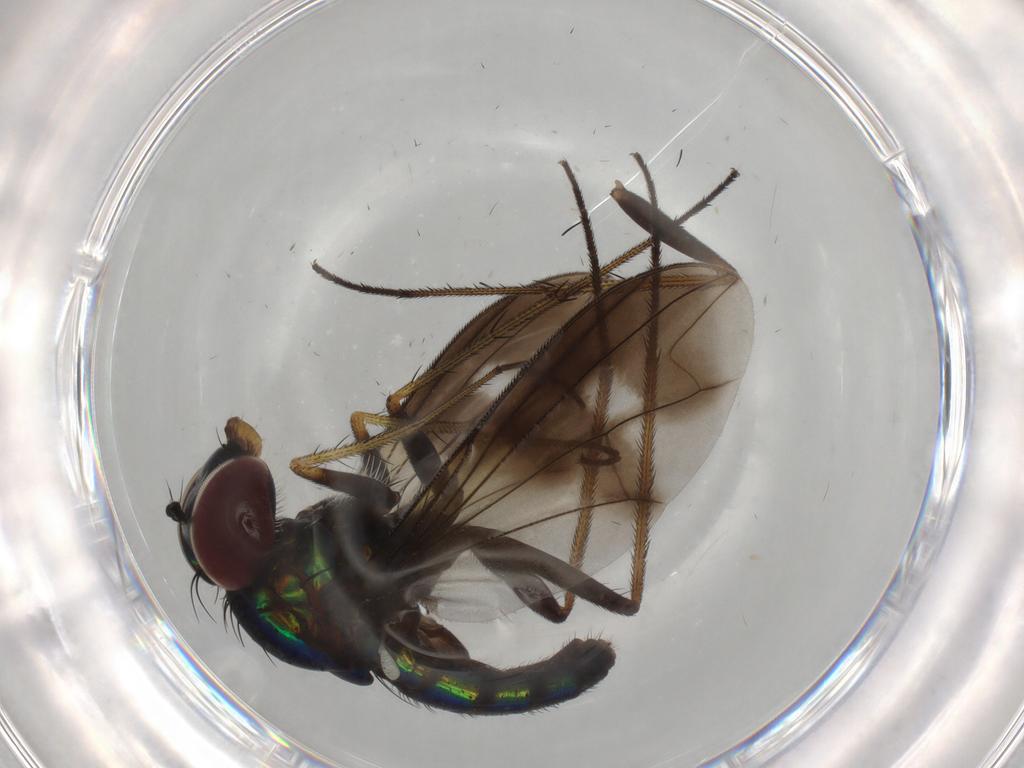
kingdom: Animalia
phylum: Arthropoda
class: Insecta
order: Diptera
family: Dolichopodidae
